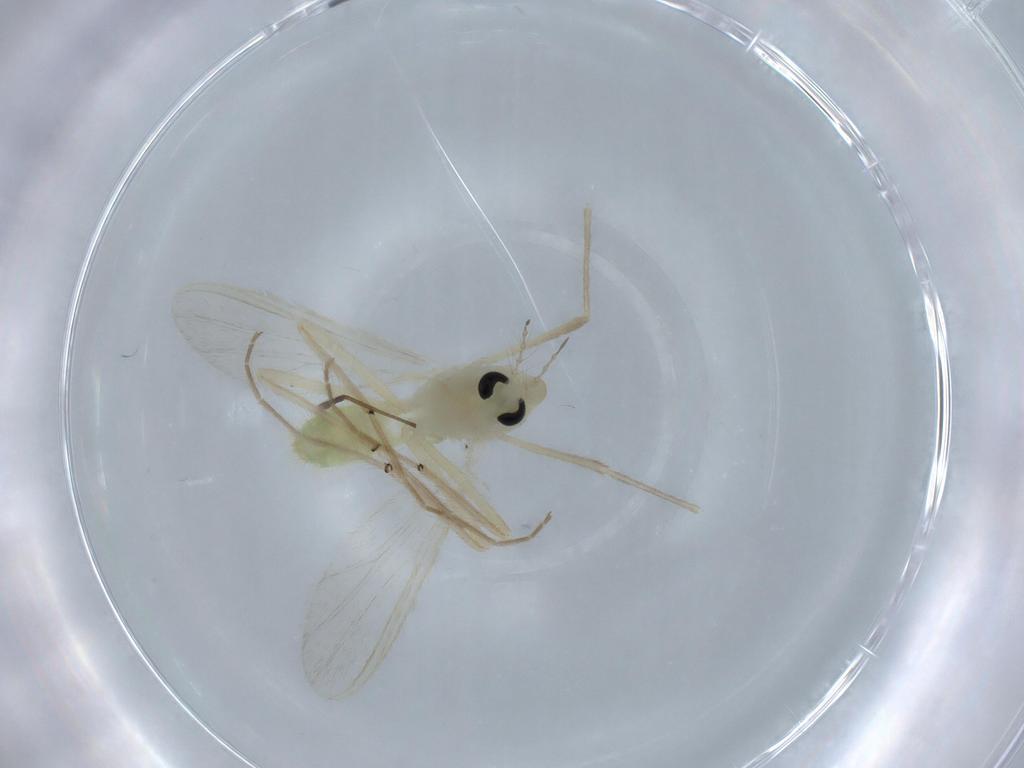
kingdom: Animalia
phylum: Arthropoda
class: Insecta
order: Diptera
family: Chironomidae
